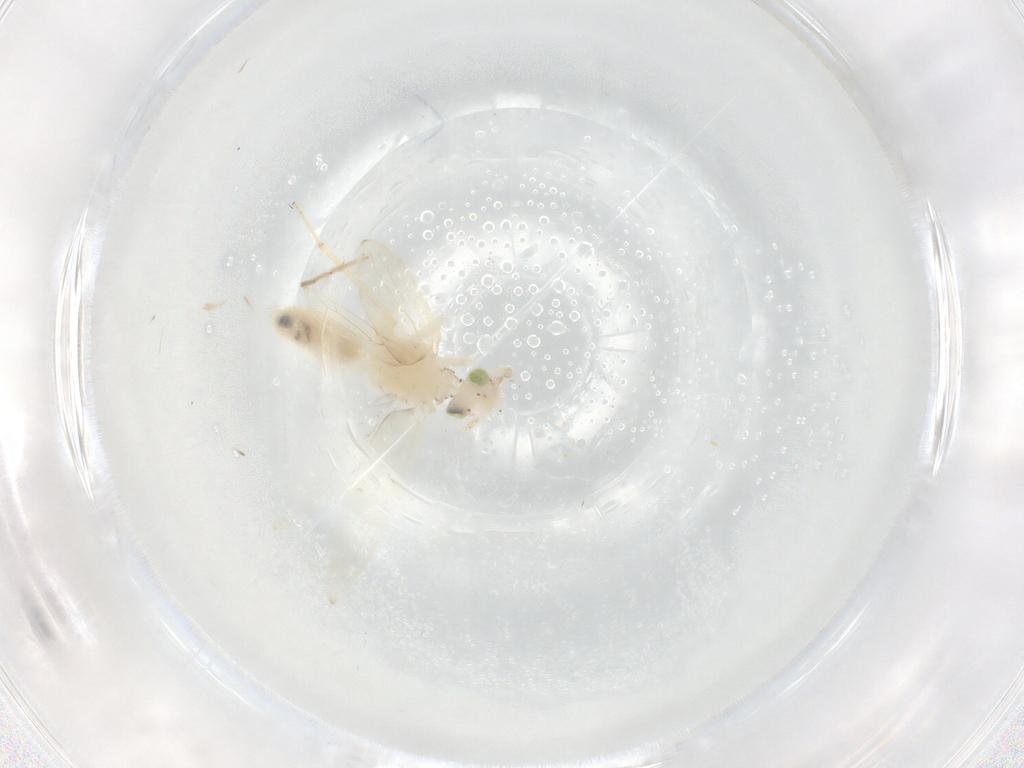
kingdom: Animalia
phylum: Arthropoda
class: Insecta
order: Psocodea
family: Lepidopsocidae
